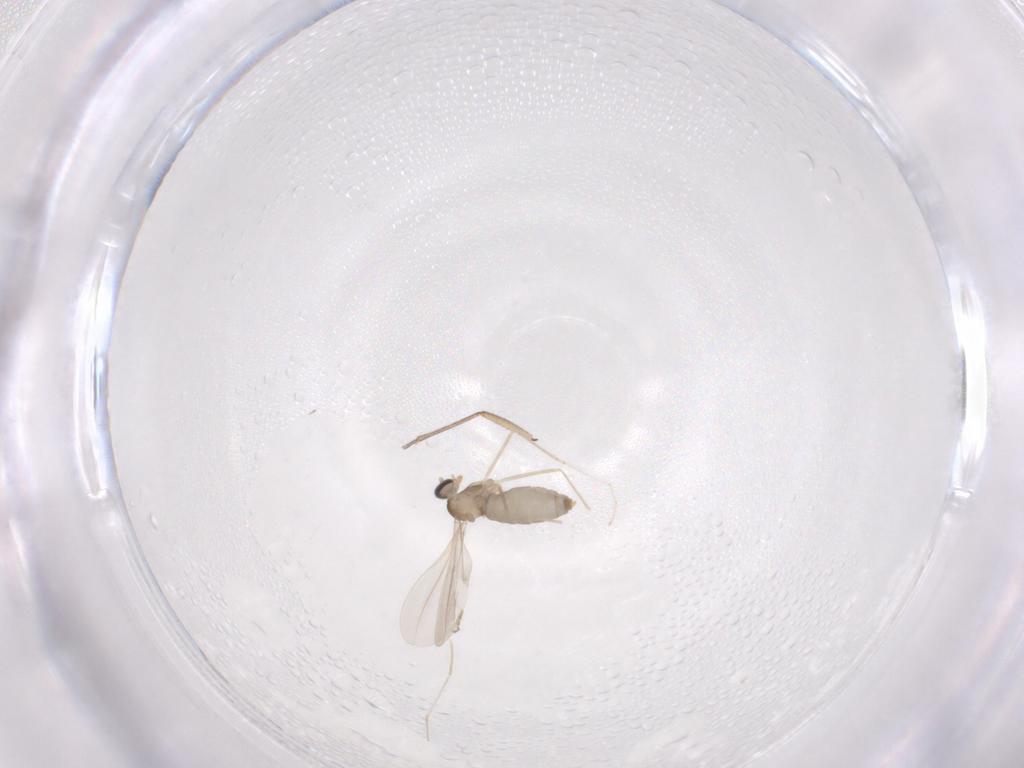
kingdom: Animalia
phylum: Arthropoda
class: Insecta
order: Diptera
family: Cecidomyiidae
